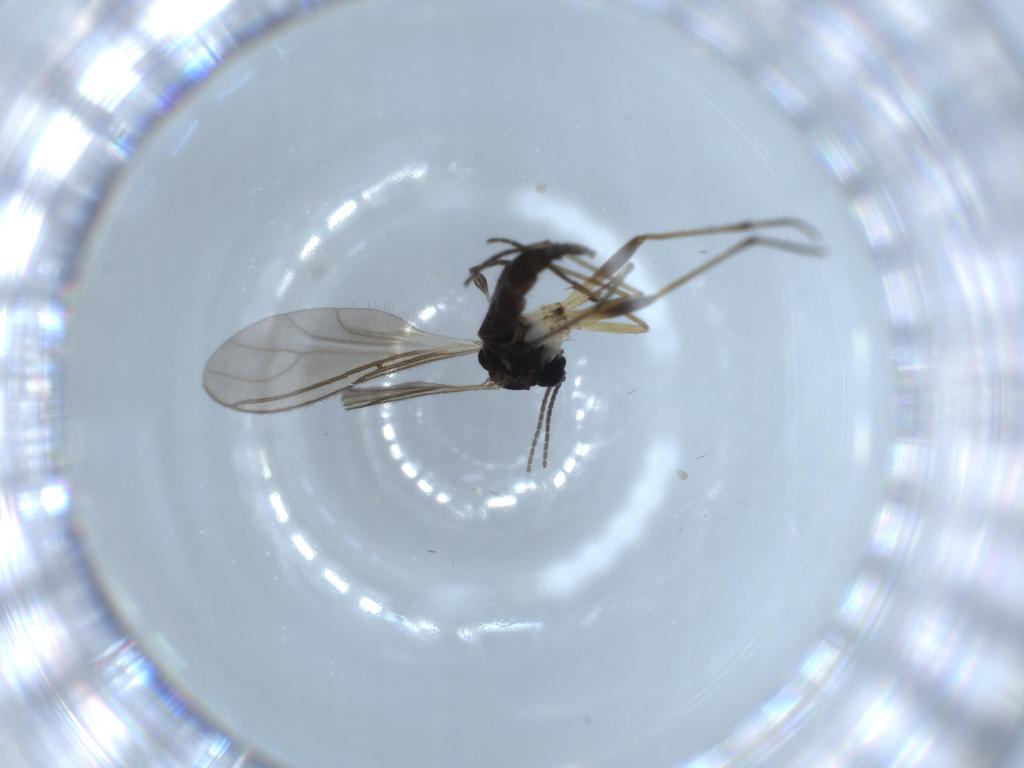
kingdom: Animalia
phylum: Arthropoda
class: Insecta
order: Diptera
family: Sciaridae
